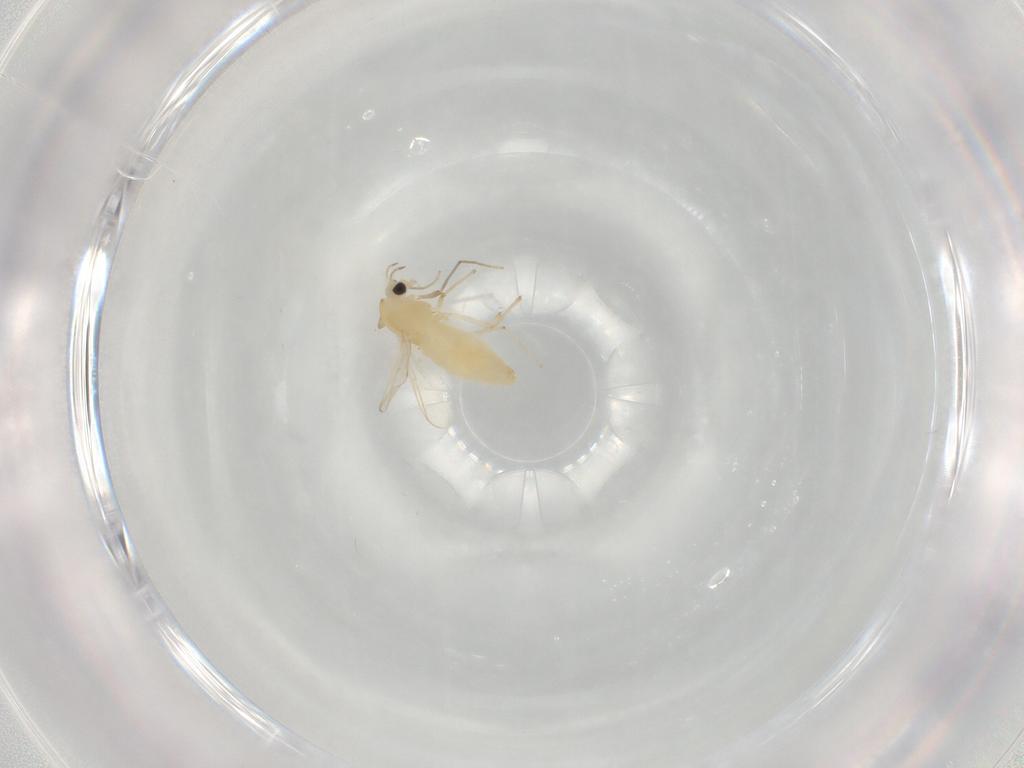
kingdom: Animalia
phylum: Arthropoda
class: Insecta
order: Diptera
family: Chironomidae
